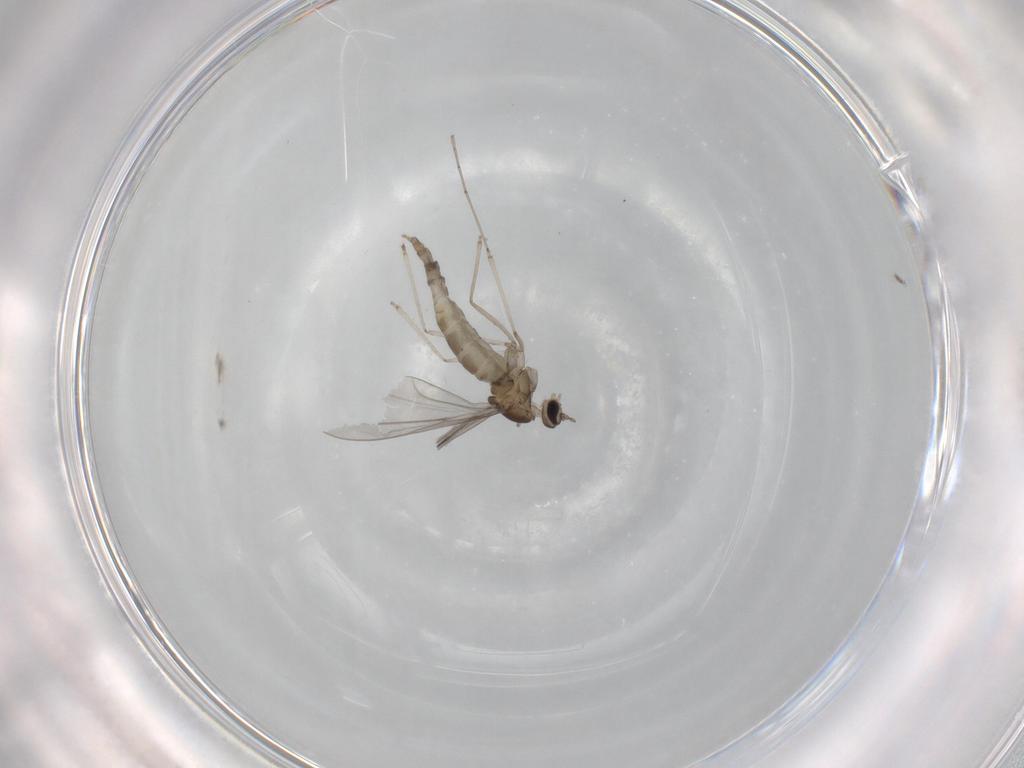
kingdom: Animalia
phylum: Arthropoda
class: Insecta
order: Diptera
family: Cecidomyiidae
